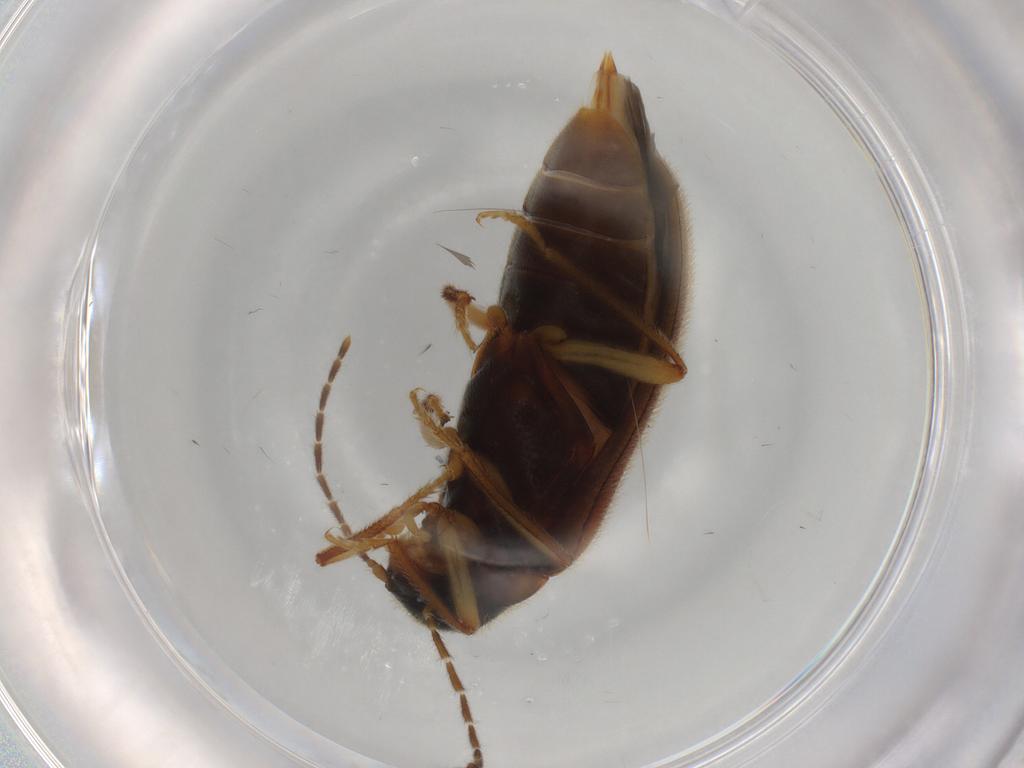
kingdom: Animalia
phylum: Arthropoda
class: Insecta
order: Coleoptera
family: Ptilodactylidae
